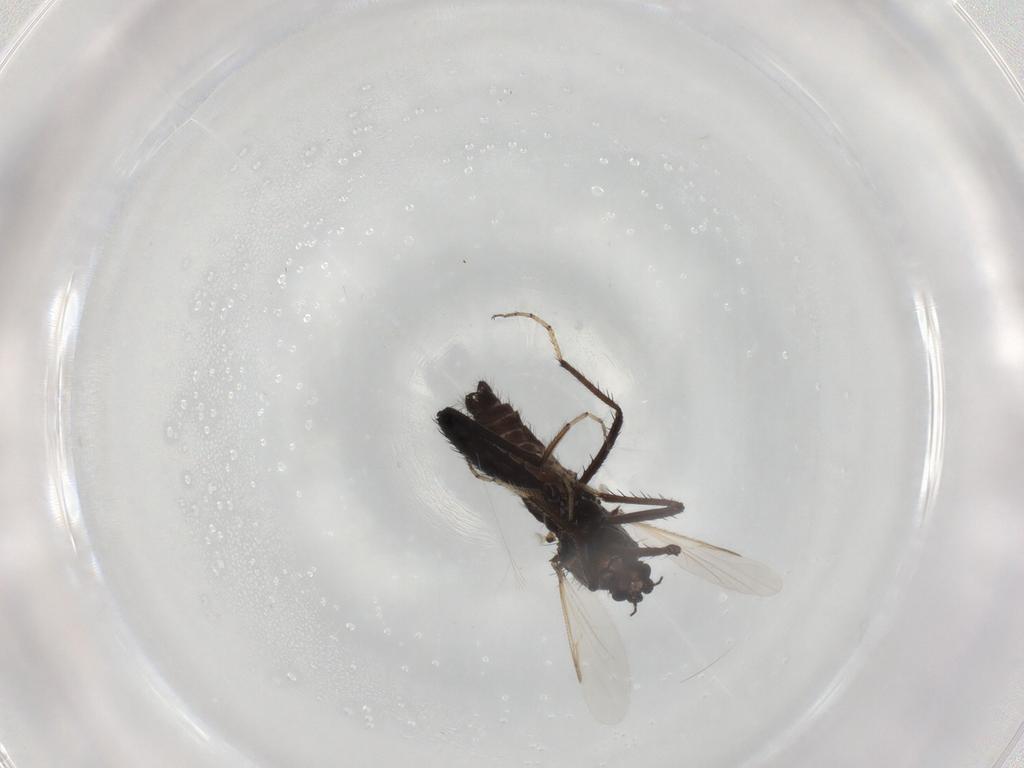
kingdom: Animalia
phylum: Arthropoda
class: Insecta
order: Diptera
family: Ceratopogonidae
